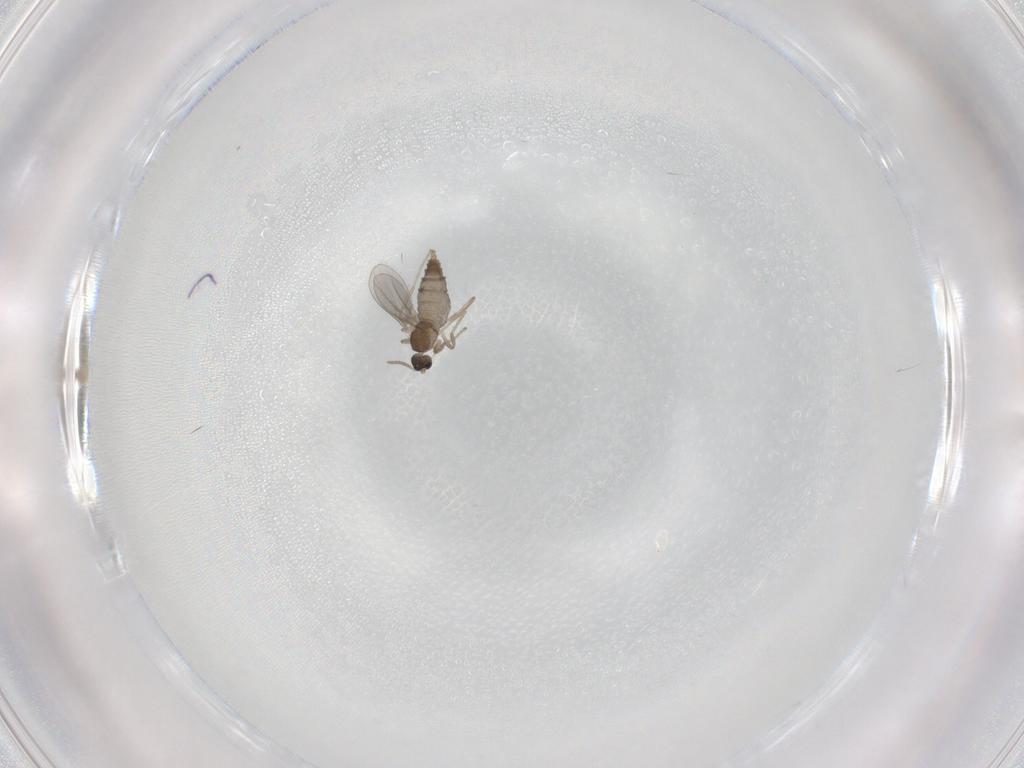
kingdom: Animalia
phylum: Arthropoda
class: Insecta
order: Diptera
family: Cecidomyiidae
